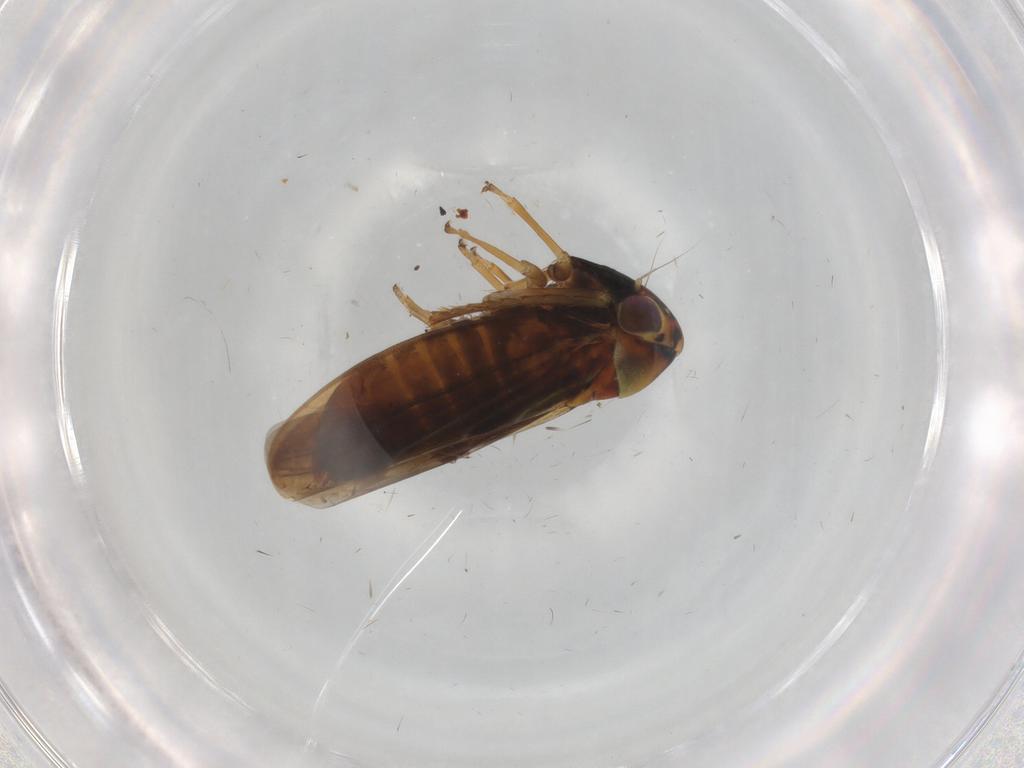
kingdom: Animalia
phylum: Arthropoda
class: Insecta
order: Hemiptera
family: Cicadellidae
